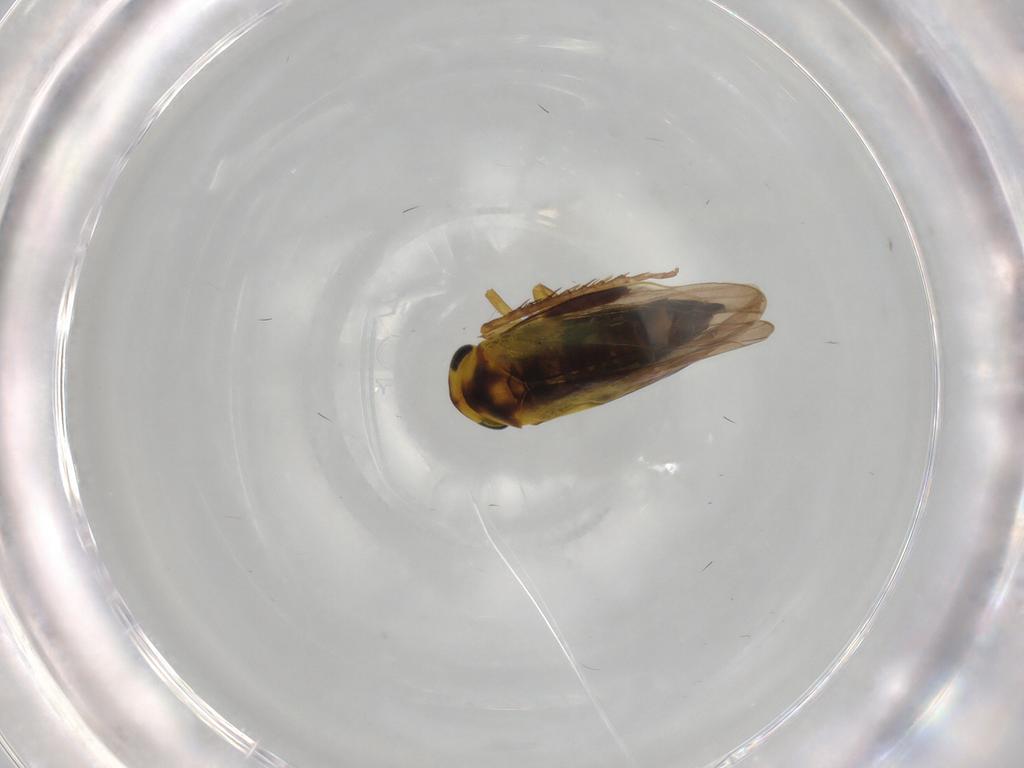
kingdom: Animalia
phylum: Arthropoda
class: Insecta
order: Hemiptera
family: Cicadellidae
